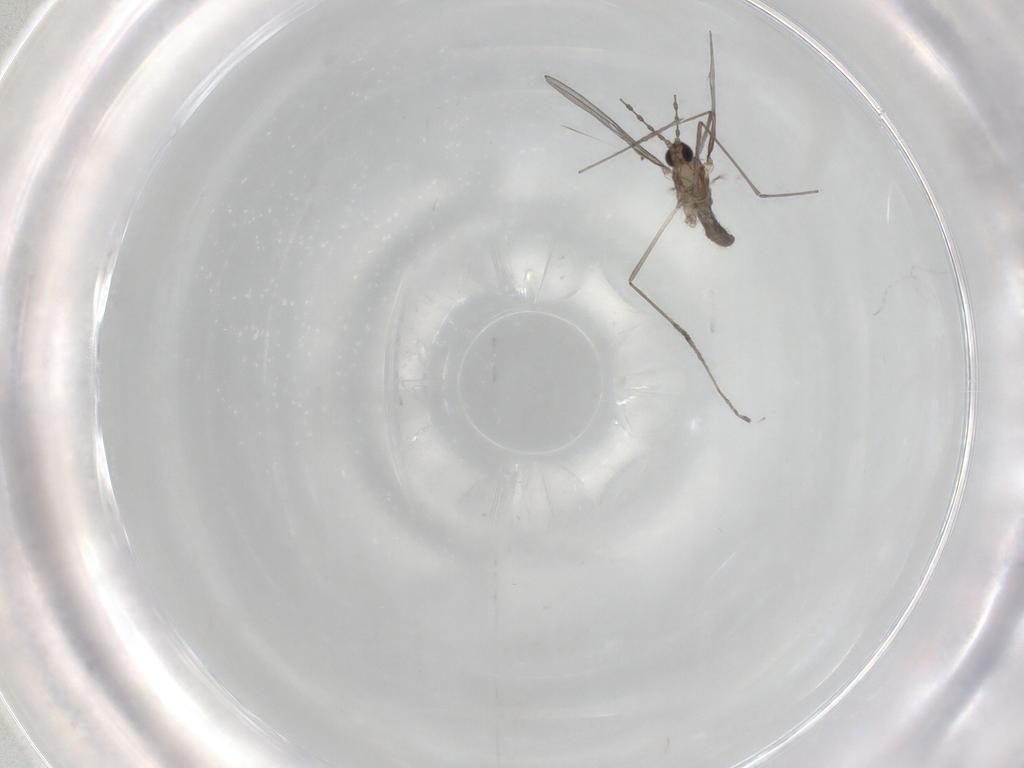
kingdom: Animalia
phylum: Arthropoda
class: Insecta
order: Diptera
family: Cecidomyiidae
